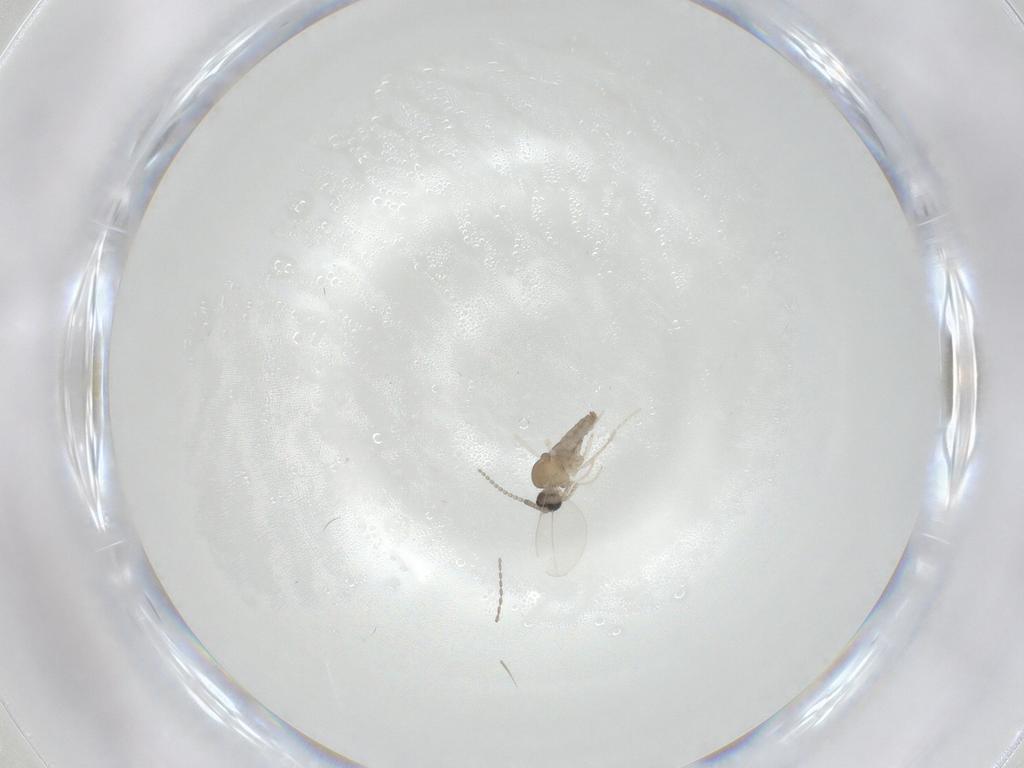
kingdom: Animalia
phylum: Arthropoda
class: Insecta
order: Diptera
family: Cecidomyiidae
